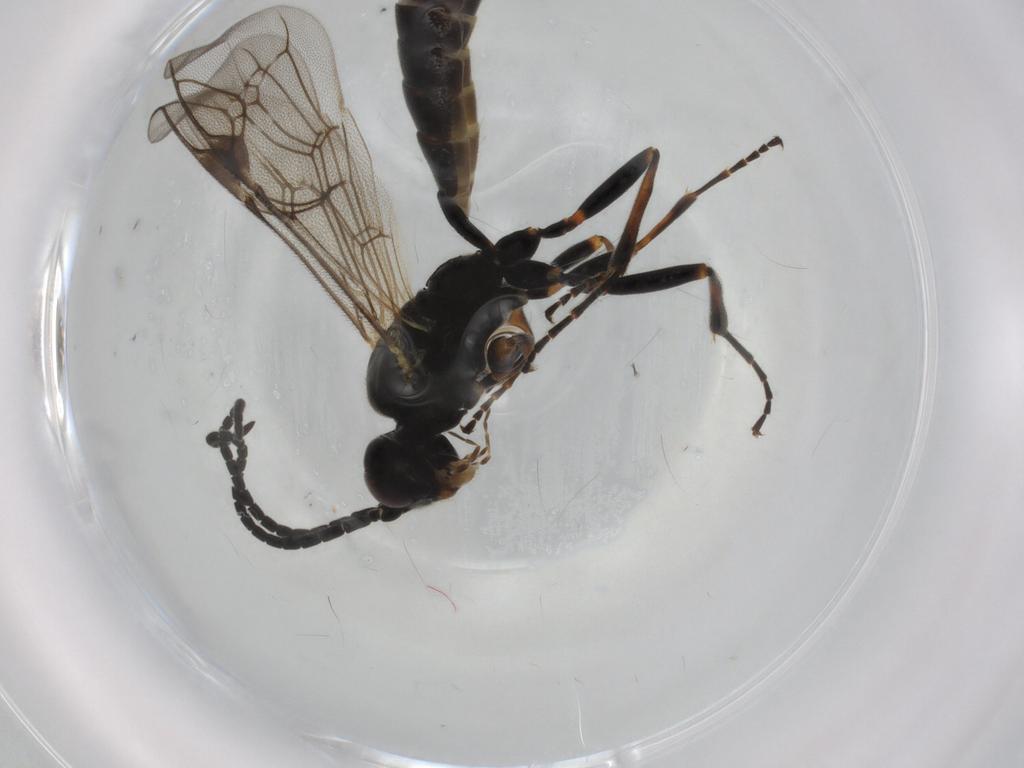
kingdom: Animalia
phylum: Arthropoda
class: Insecta
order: Hymenoptera
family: Ichneumonidae
